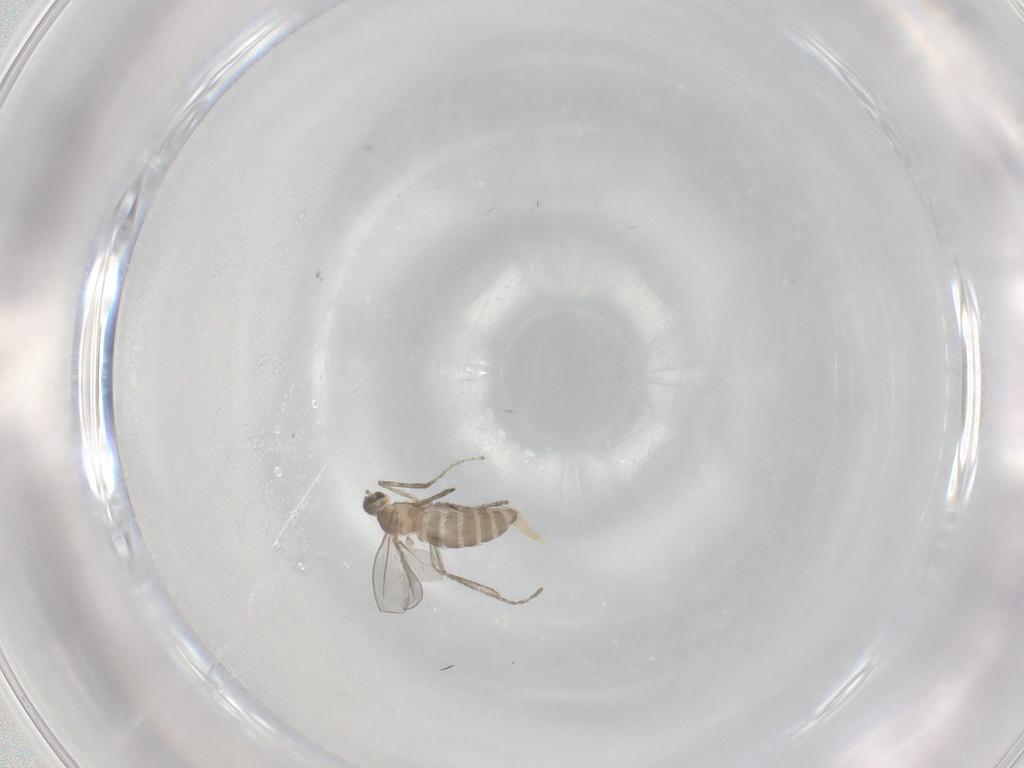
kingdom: Animalia
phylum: Arthropoda
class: Insecta
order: Diptera
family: Cecidomyiidae
